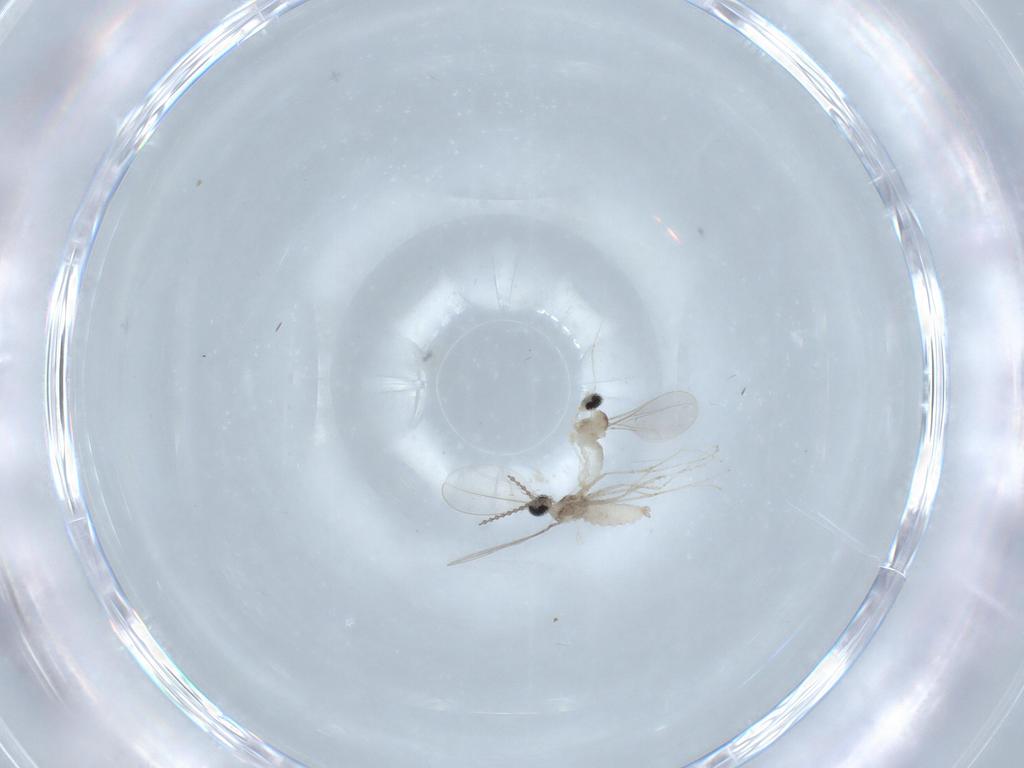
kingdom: Animalia
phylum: Arthropoda
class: Insecta
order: Diptera
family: Cecidomyiidae
